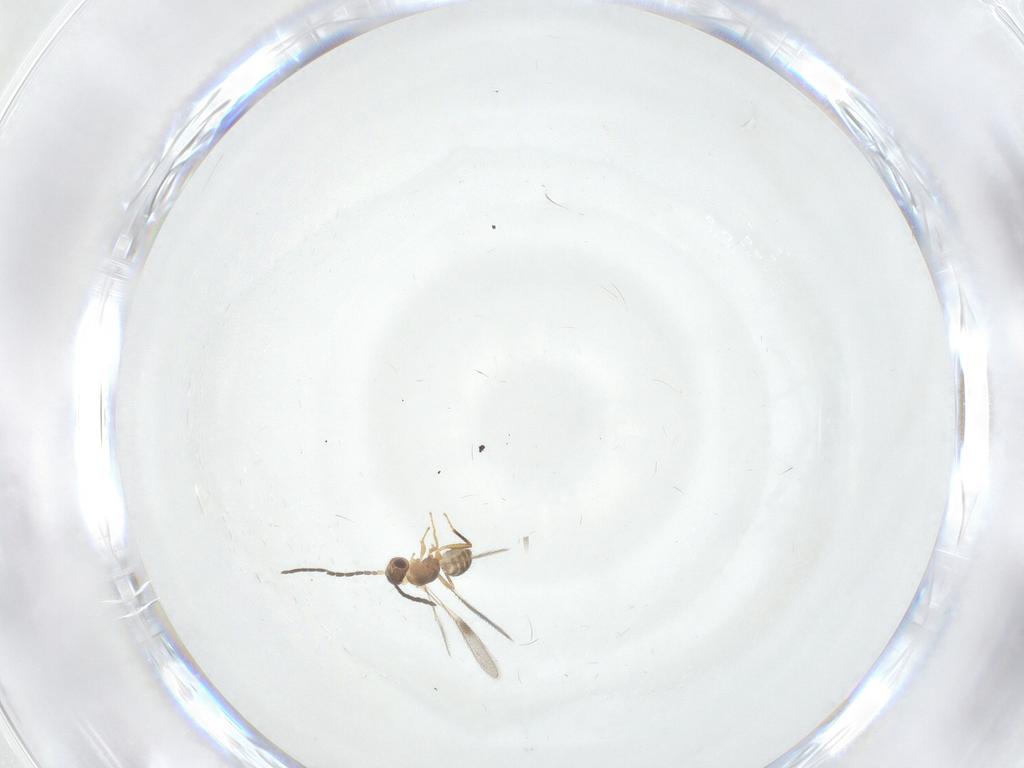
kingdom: Animalia
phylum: Arthropoda
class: Insecta
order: Hymenoptera
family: Mymaridae
